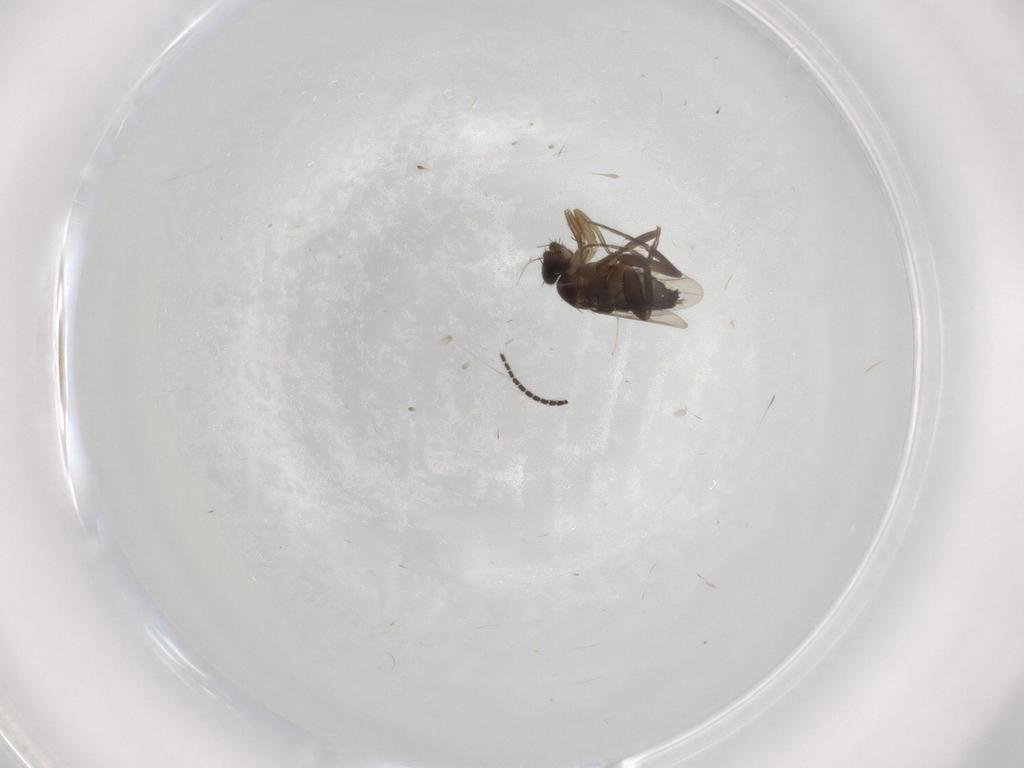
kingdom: Animalia
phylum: Arthropoda
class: Insecta
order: Diptera
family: Phoridae
